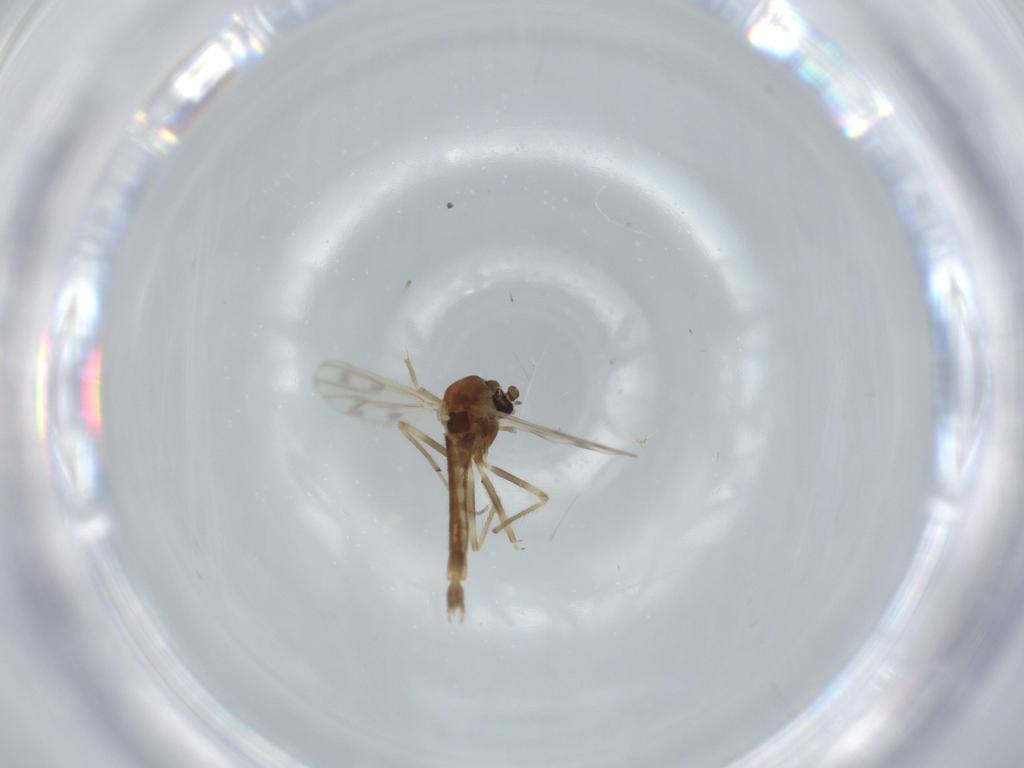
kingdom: Animalia
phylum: Arthropoda
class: Insecta
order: Diptera
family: Chironomidae
